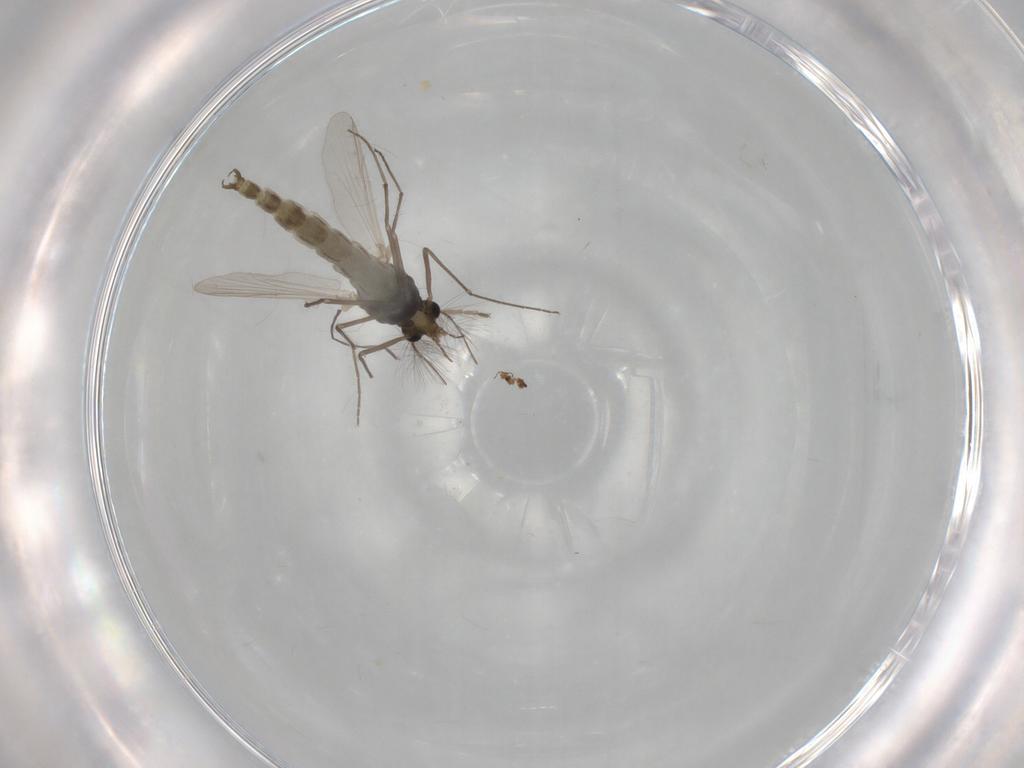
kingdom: Animalia
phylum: Arthropoda
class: Insecta
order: Diptera
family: Chironomidae
